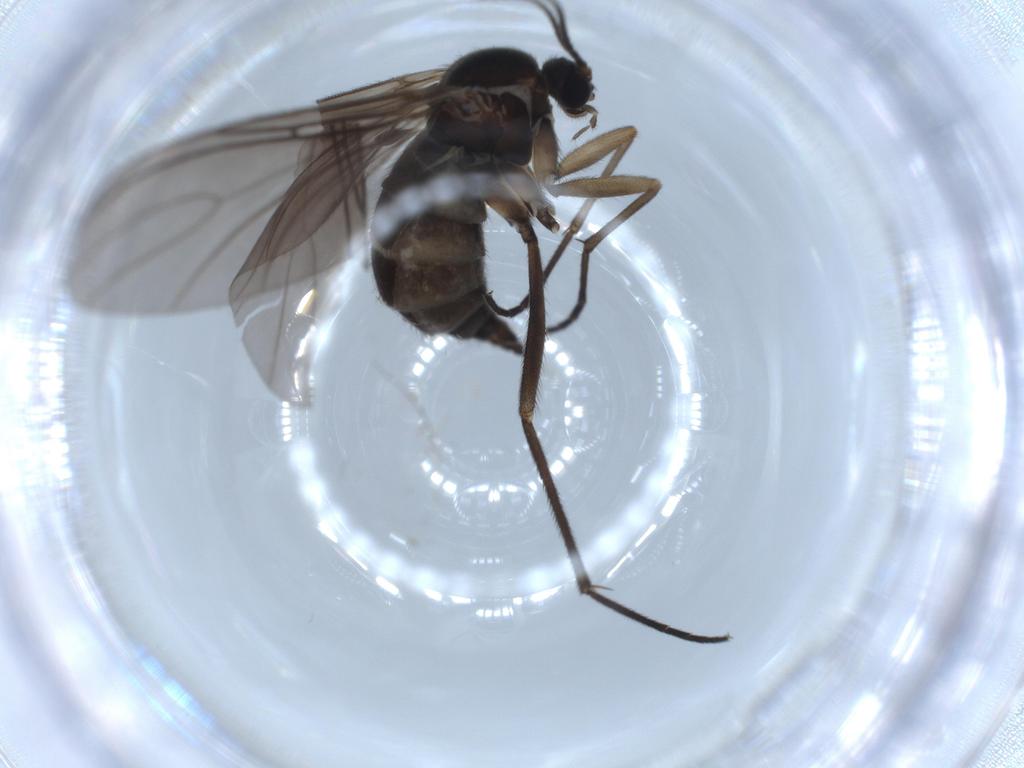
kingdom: Animalia
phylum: Arthropoda
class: Insecta
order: Diptera
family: Sciaridae
